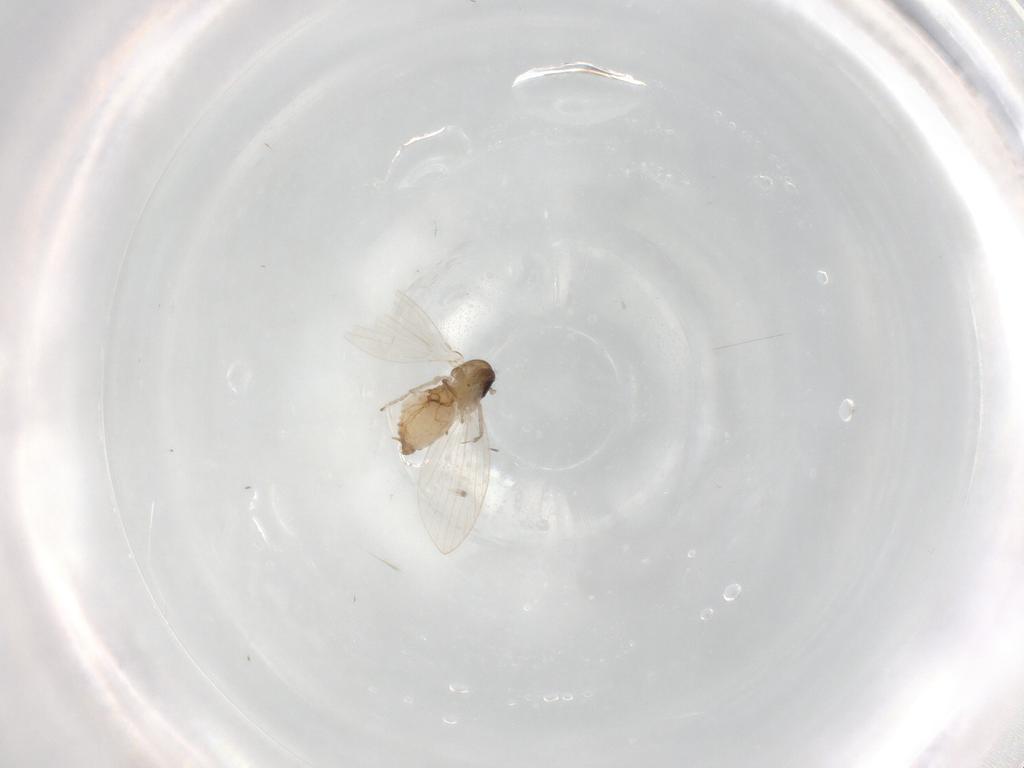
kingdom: Animalia
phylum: Arthropoda
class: Insecta
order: Diptera
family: Psychodidae
